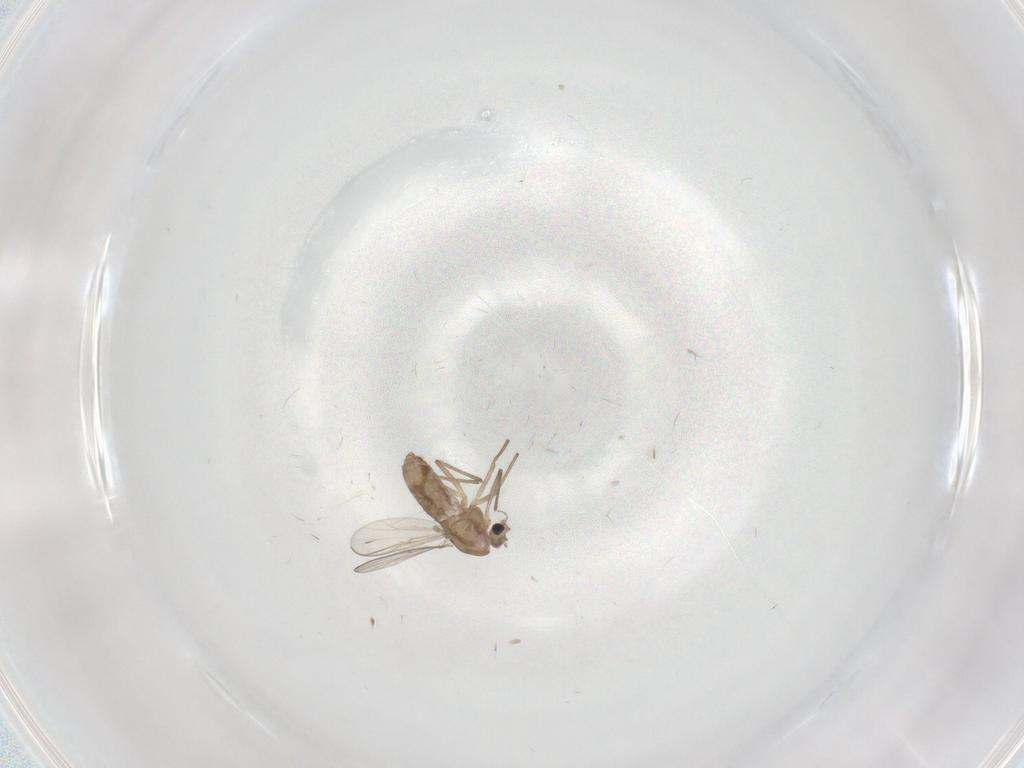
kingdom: Animalia
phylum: Arthropoda
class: Insecta
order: Diptera
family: Chironomidae
